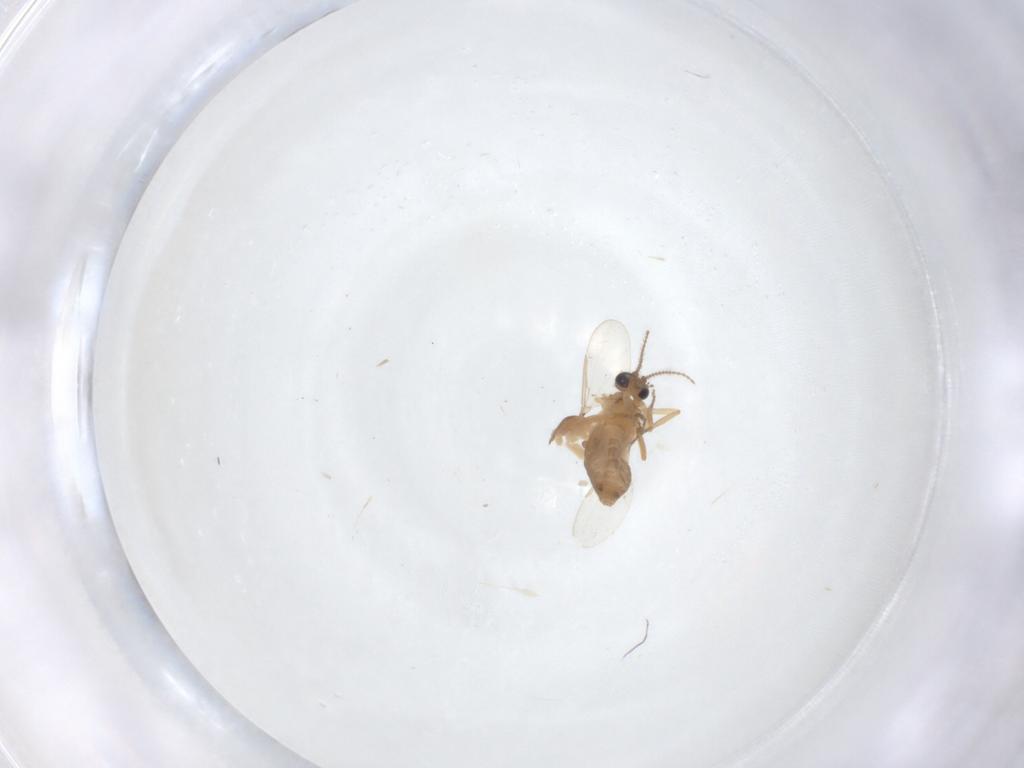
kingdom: Animalia
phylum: Arthropoda
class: Insecta
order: Diptera
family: Ceratopogonidae
